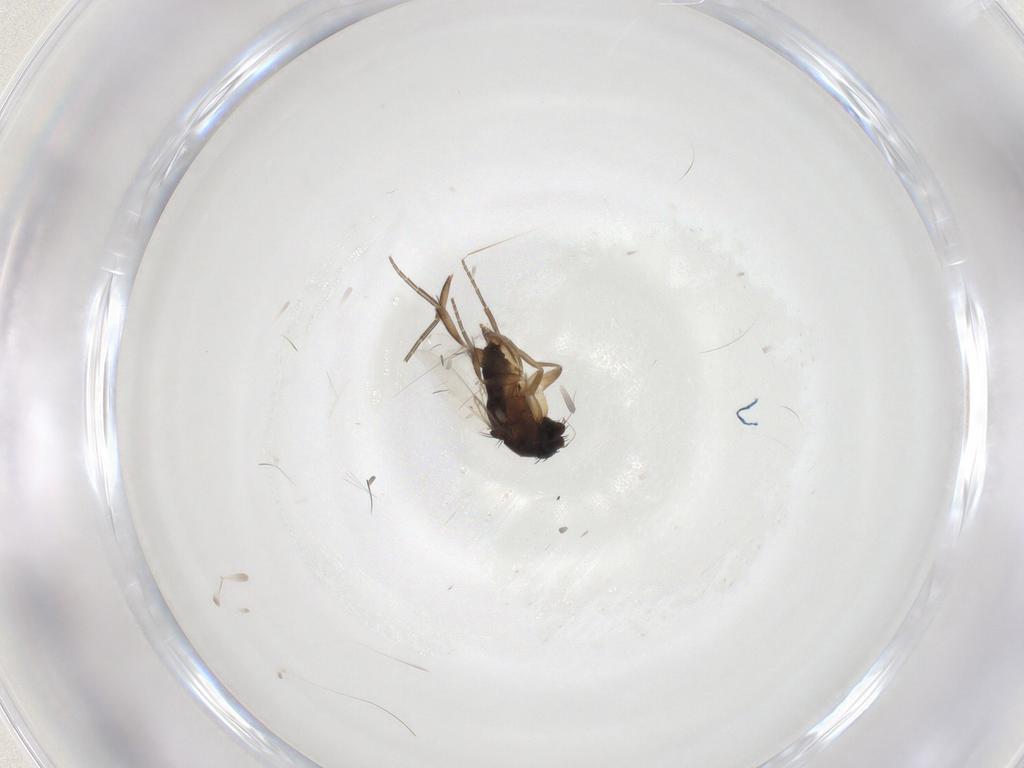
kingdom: Animalia
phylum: Arthropoda
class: Insecta
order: Diptera
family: Phoridae
